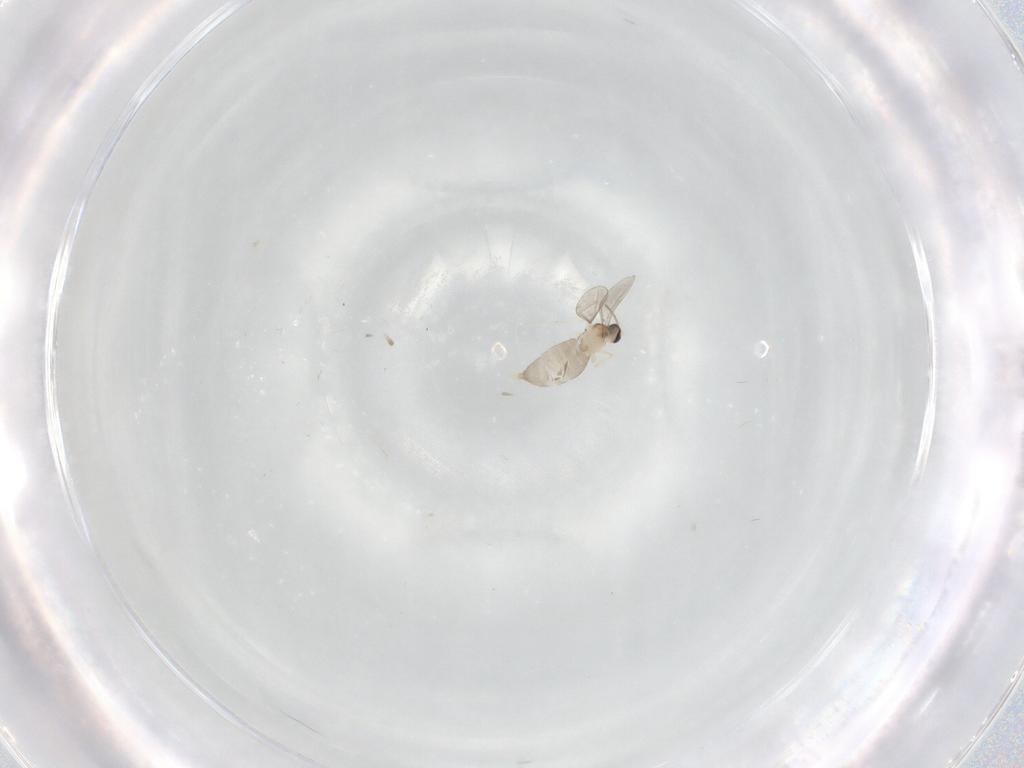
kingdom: Animalia
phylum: Arthropoda
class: Insecta
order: Diptera
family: Cecidomyiidae
